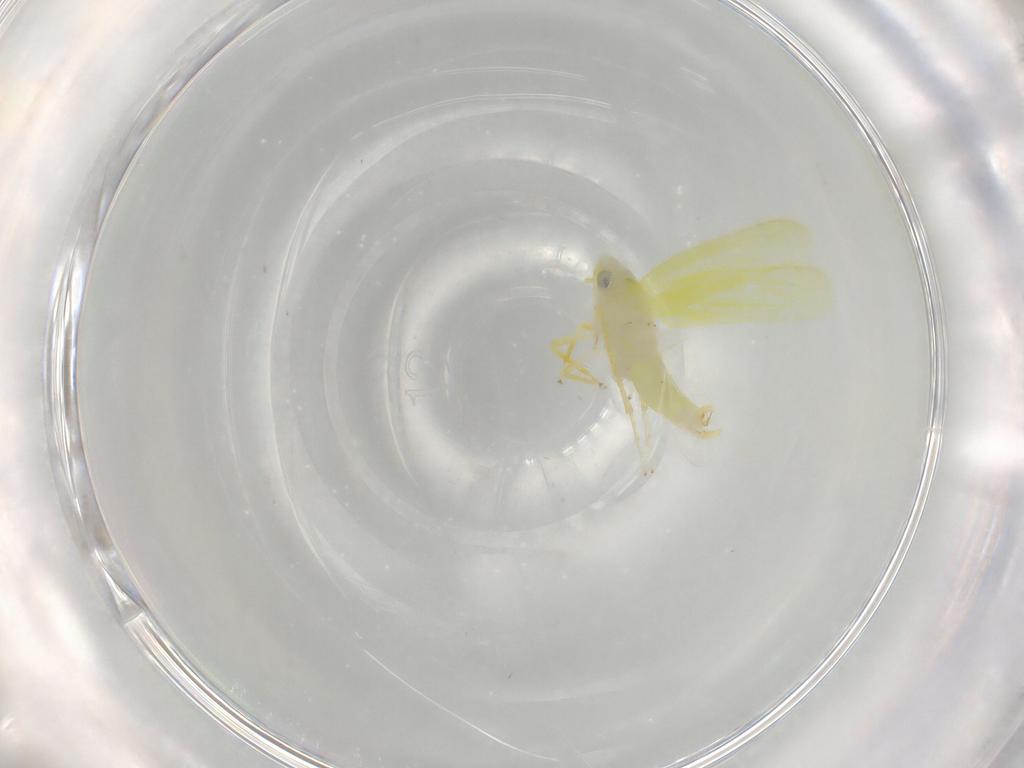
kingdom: Animalia
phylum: Arthropoda
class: Insecta
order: Hemiptera
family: Cicadellidae
